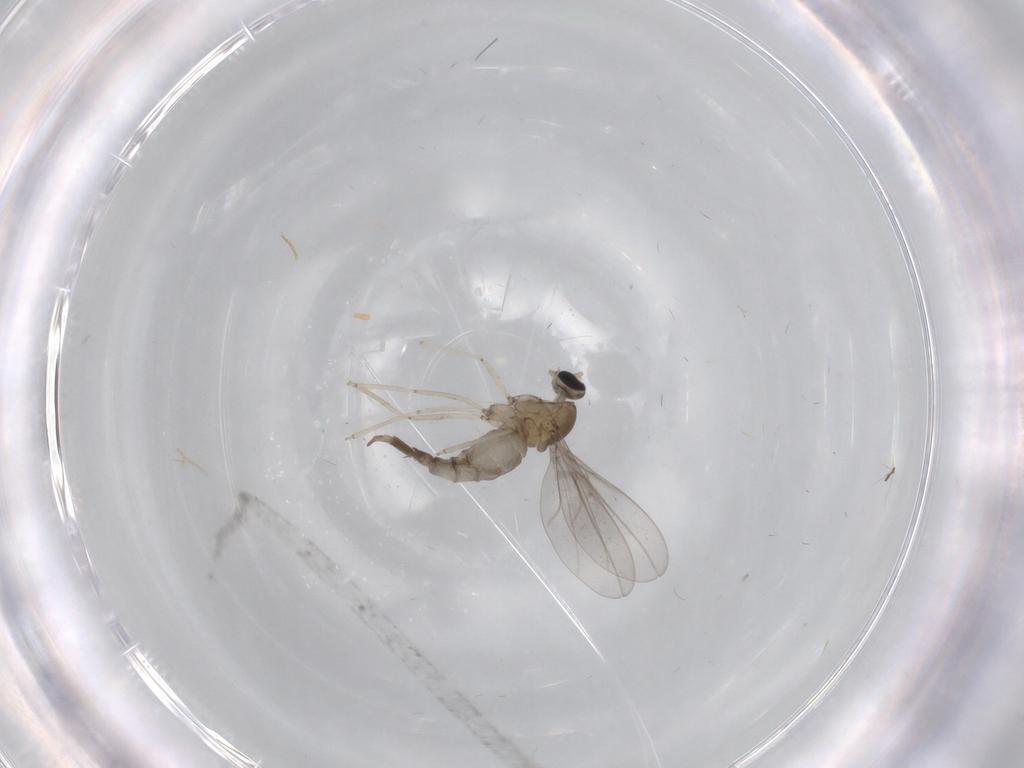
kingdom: Animalia
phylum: Arthropoda
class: Insecta
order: Diptera
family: Cecidomyiidae
